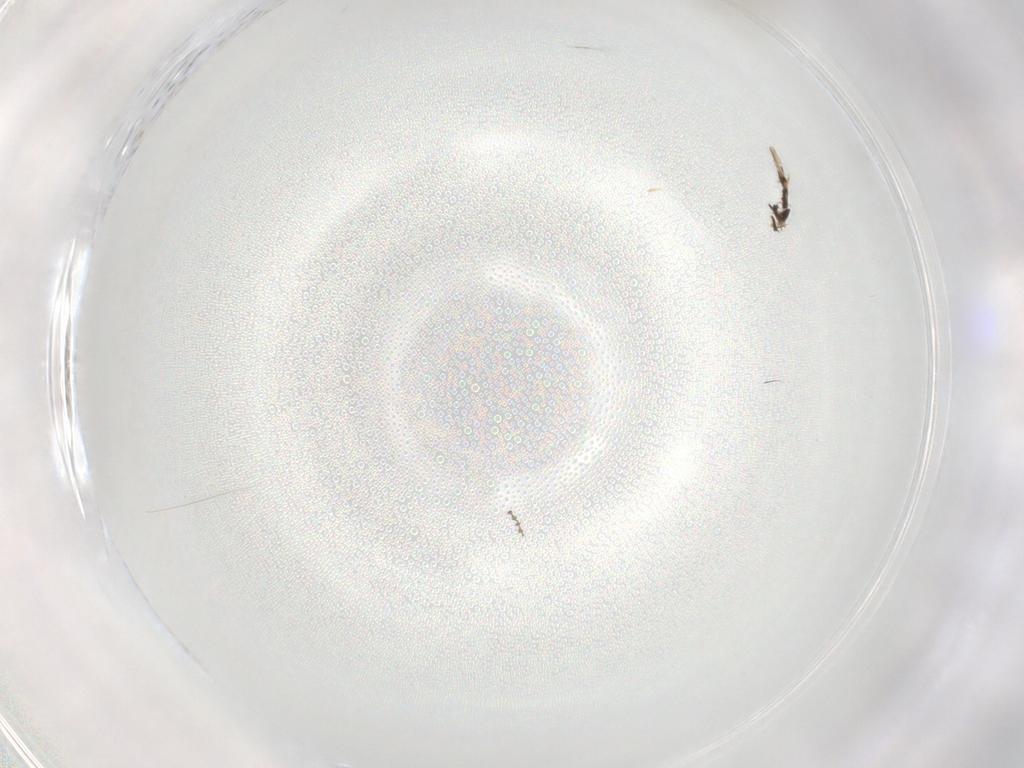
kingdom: Animalia
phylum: Arthropoda
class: Insecta
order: Diptera
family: Cecidomyiidae
